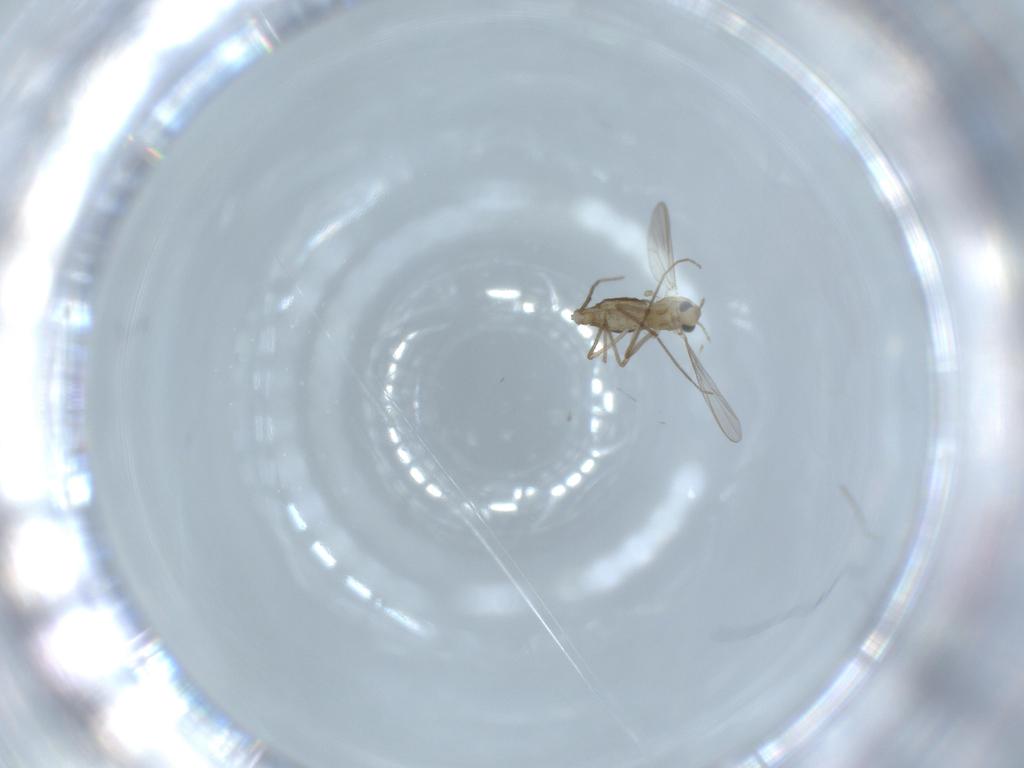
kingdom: Animalia
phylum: Arthropoda
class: Insecta
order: Diptera
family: Chironomidae
